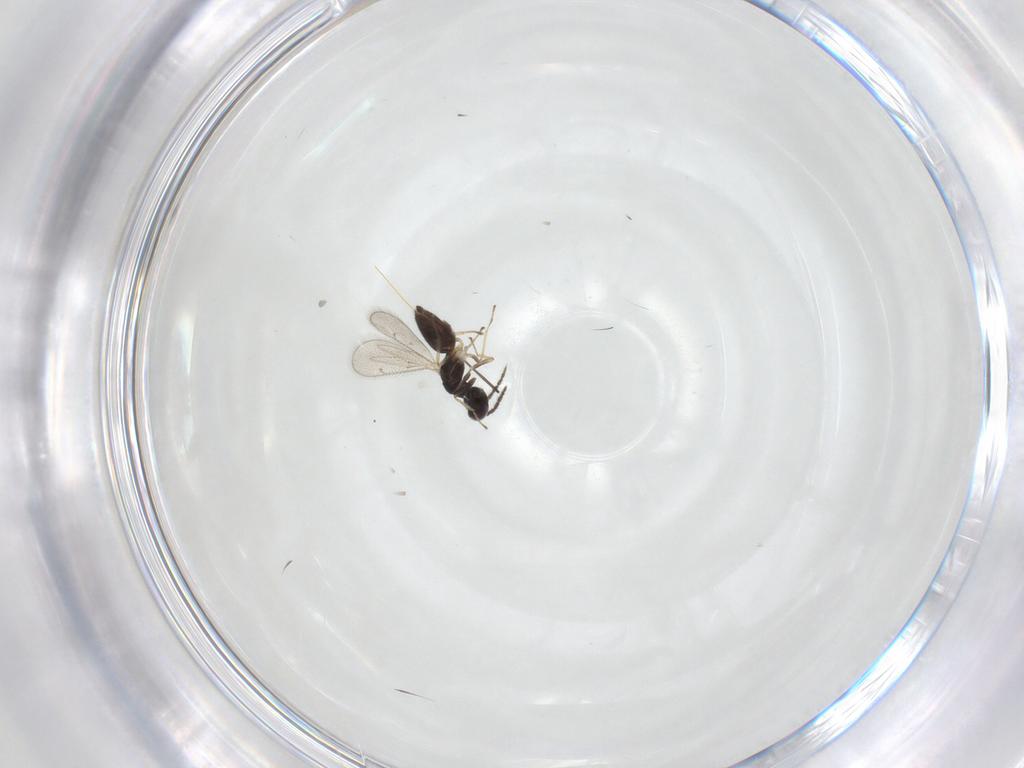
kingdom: Animalia
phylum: Arthropoda
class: Insecta
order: Hymenoptera
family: Eulophidae
